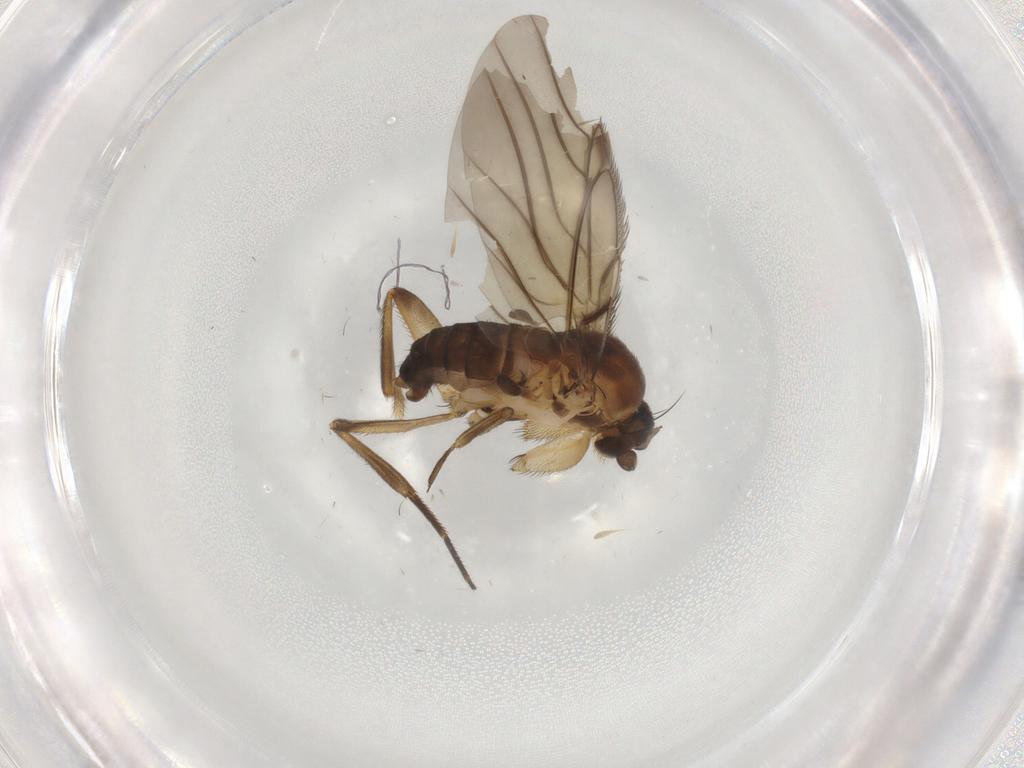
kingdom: Animalia
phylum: Arthropoda
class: Insecta
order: Diptera
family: Phoridae
